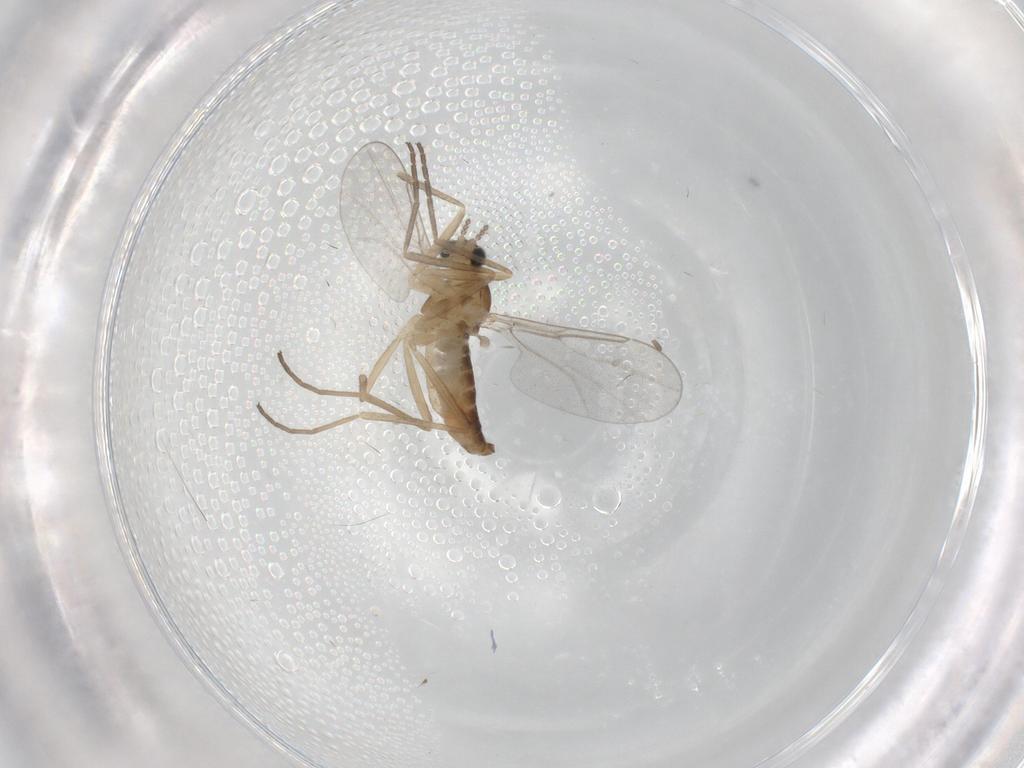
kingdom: Animalia
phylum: Arthropoda
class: Insecta
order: Diptera
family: Cecidomyiidae
